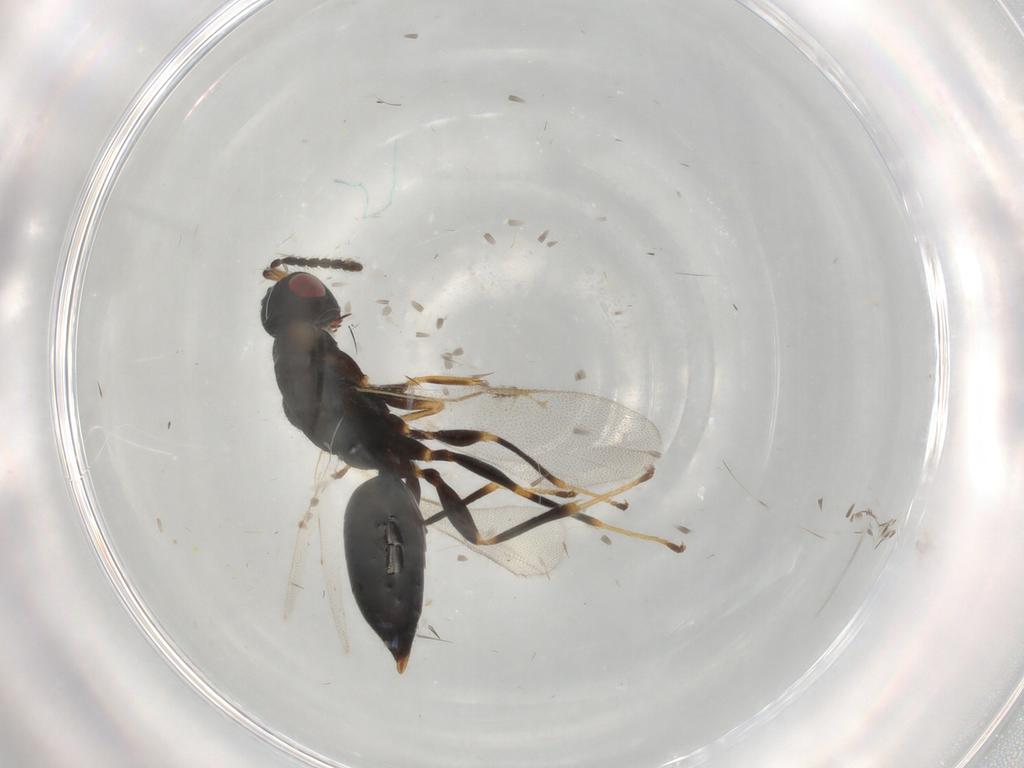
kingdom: Animalia
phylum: Arthropoda
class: Insecta
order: Hymenoptera
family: Eurytomidae
